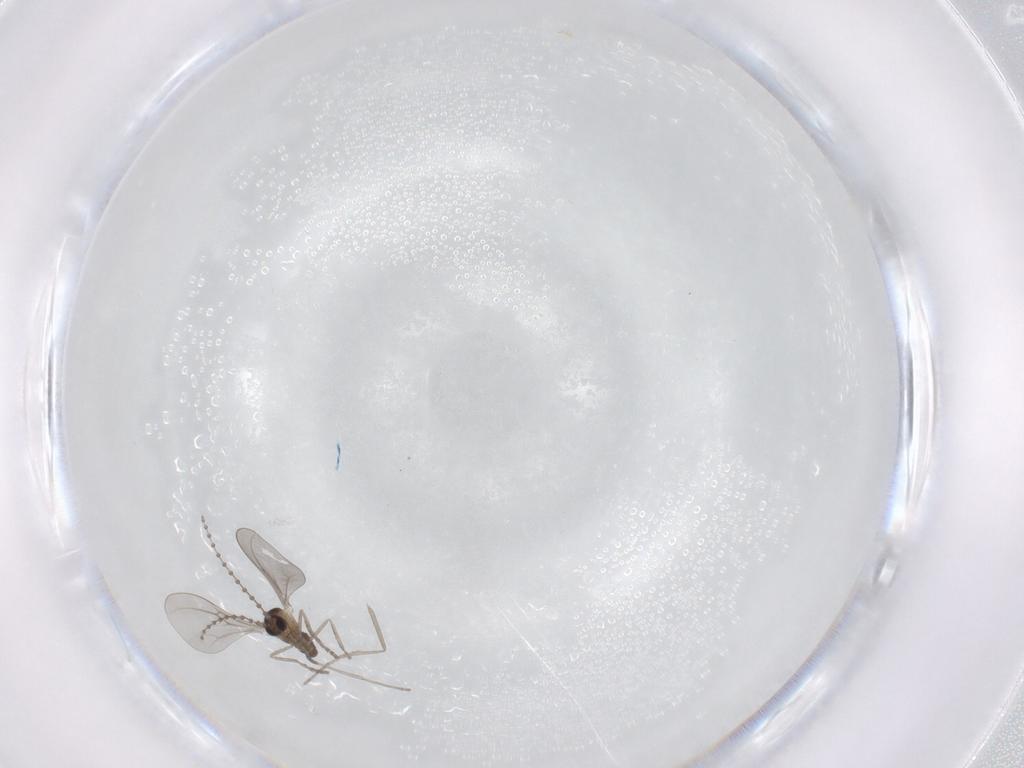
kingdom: Animalia
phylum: Arthropoda
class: Insecta
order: Diptera
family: Cecidomyiidae
